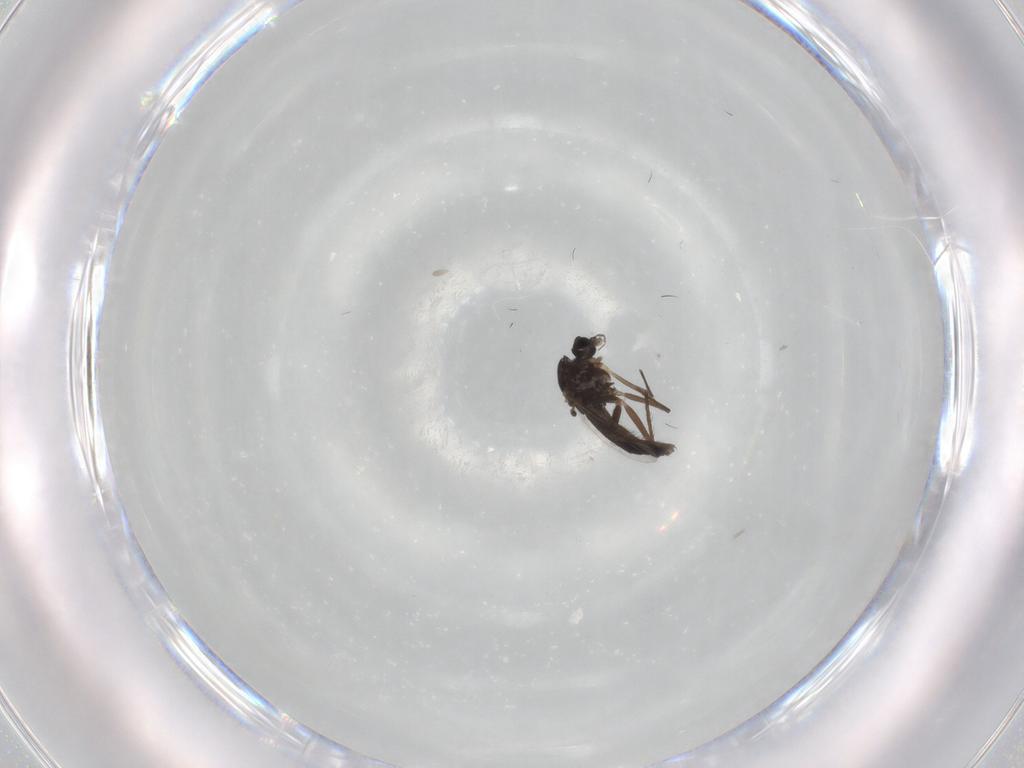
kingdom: Animalia
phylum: Arthropoda
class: Insecta
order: Diptera
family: Chironomidae
